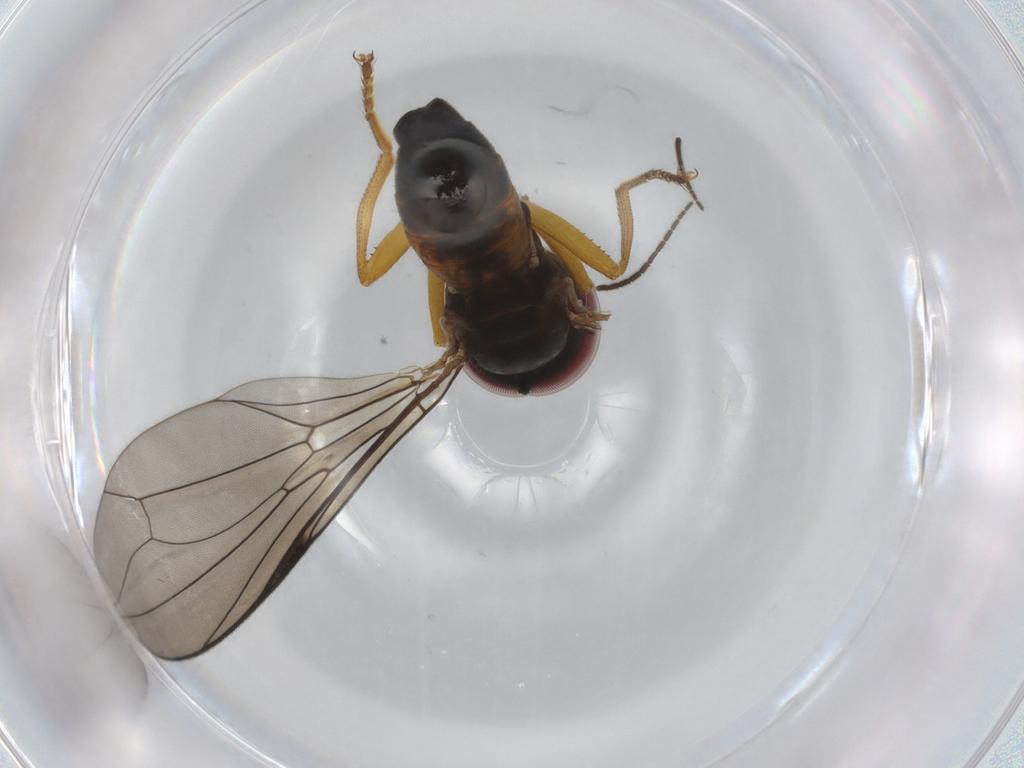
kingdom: Animalia
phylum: Arthropoda
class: Insecta
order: Diptera
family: Pipunculidae
